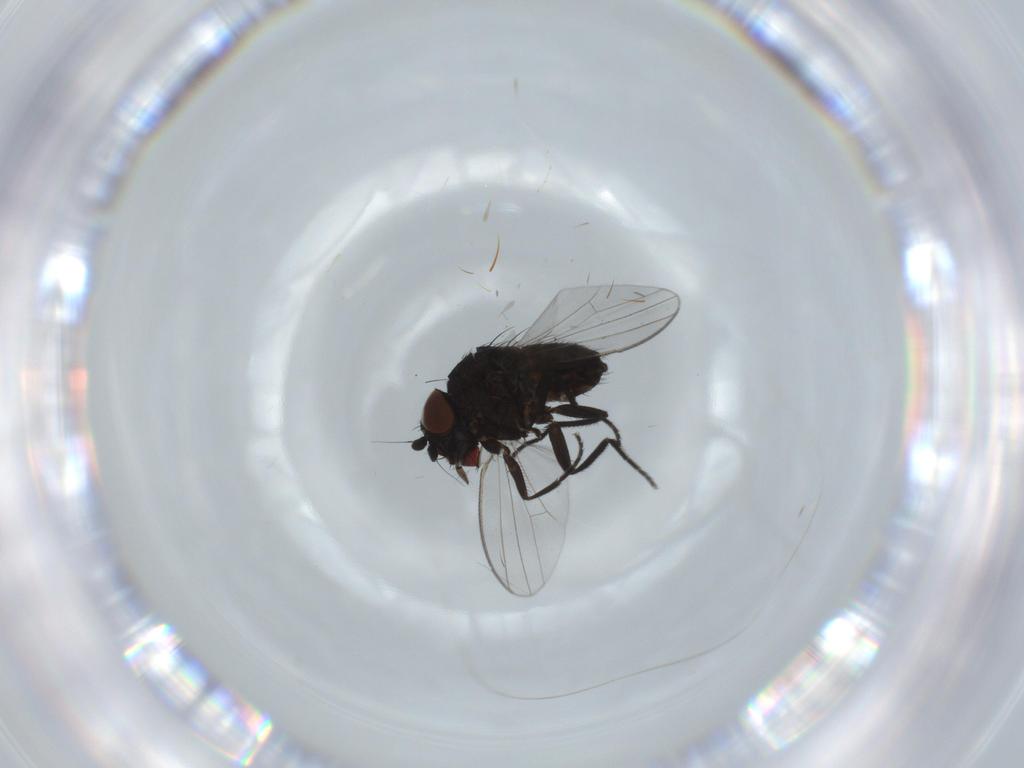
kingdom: Animalia
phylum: Arthropoda
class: Insecta
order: Diptera
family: Milichiidae
